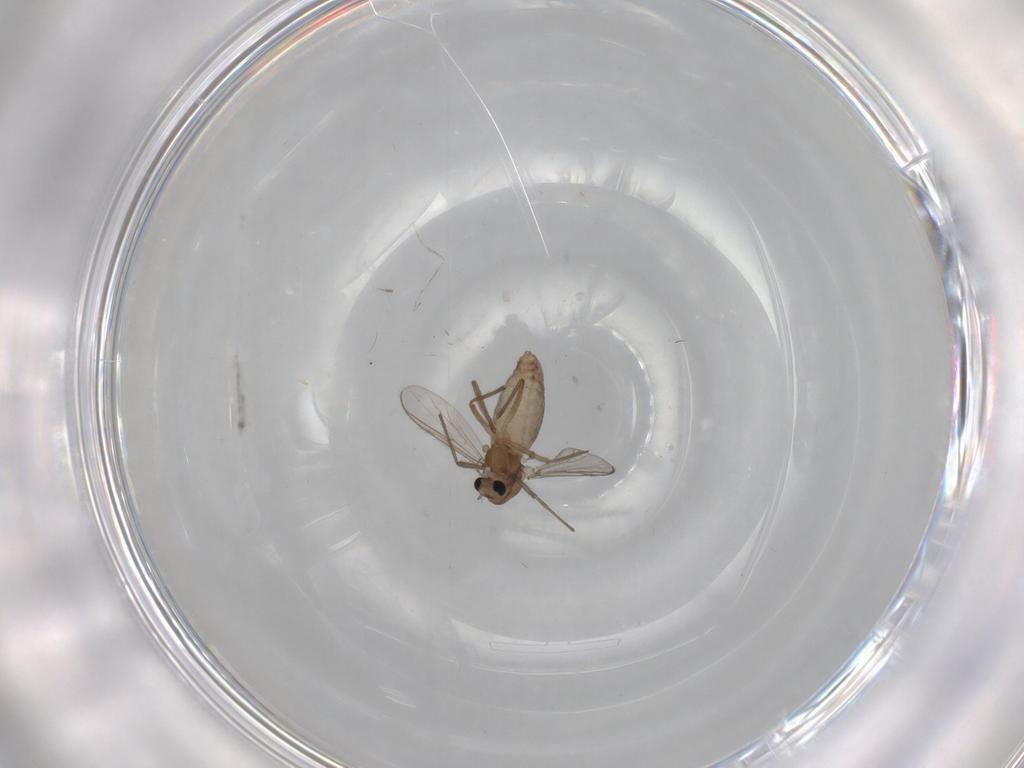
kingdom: Animalia
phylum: Arthropoda
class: Insecta
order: Diptera
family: Chironomidae
